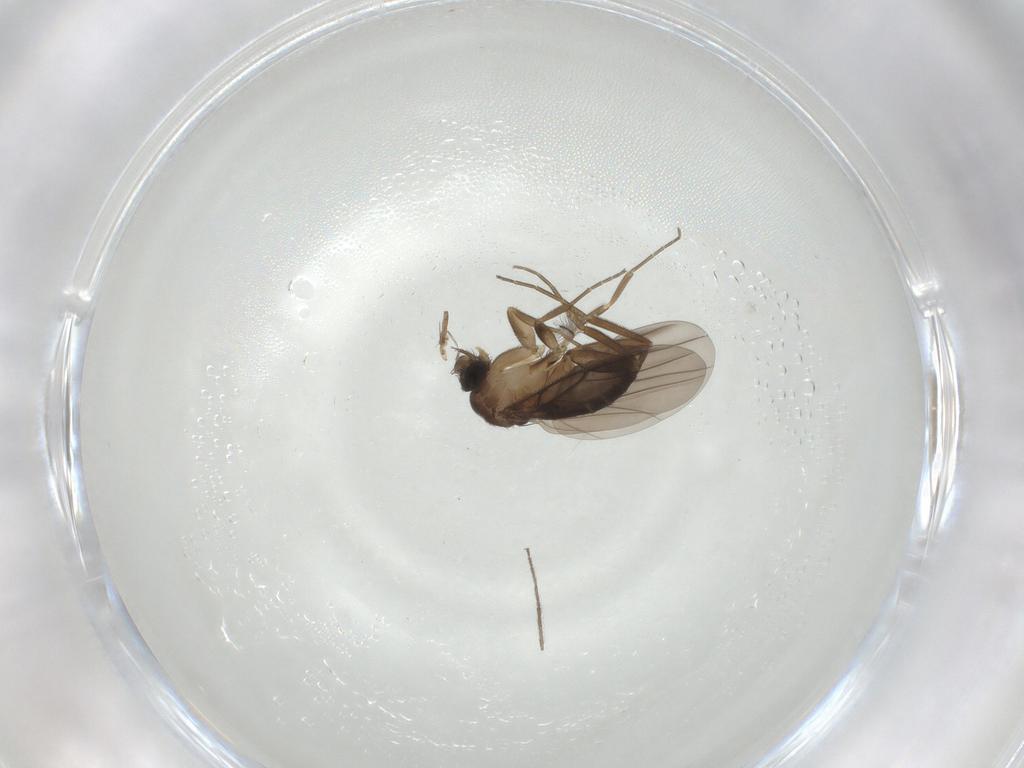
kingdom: Animalia
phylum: Arthropoda
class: Insecta
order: Diptera
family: Phoridae
